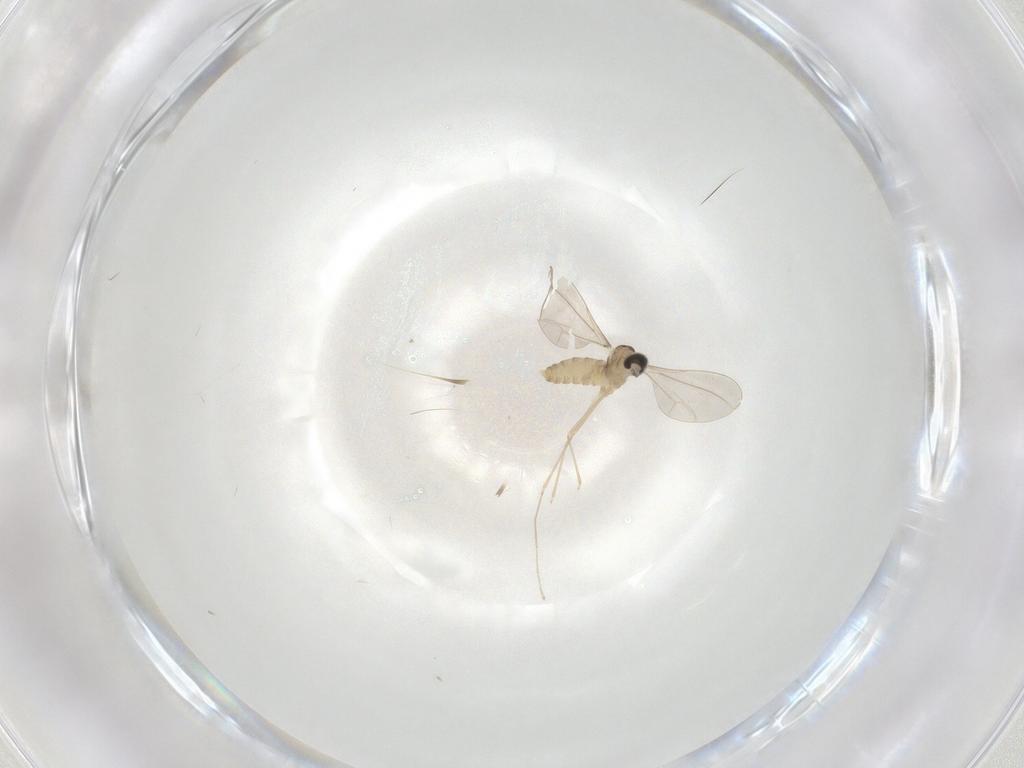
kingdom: Animalia
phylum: Arthropoda
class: Insecta
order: Diptera
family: Cecidomyiidae
